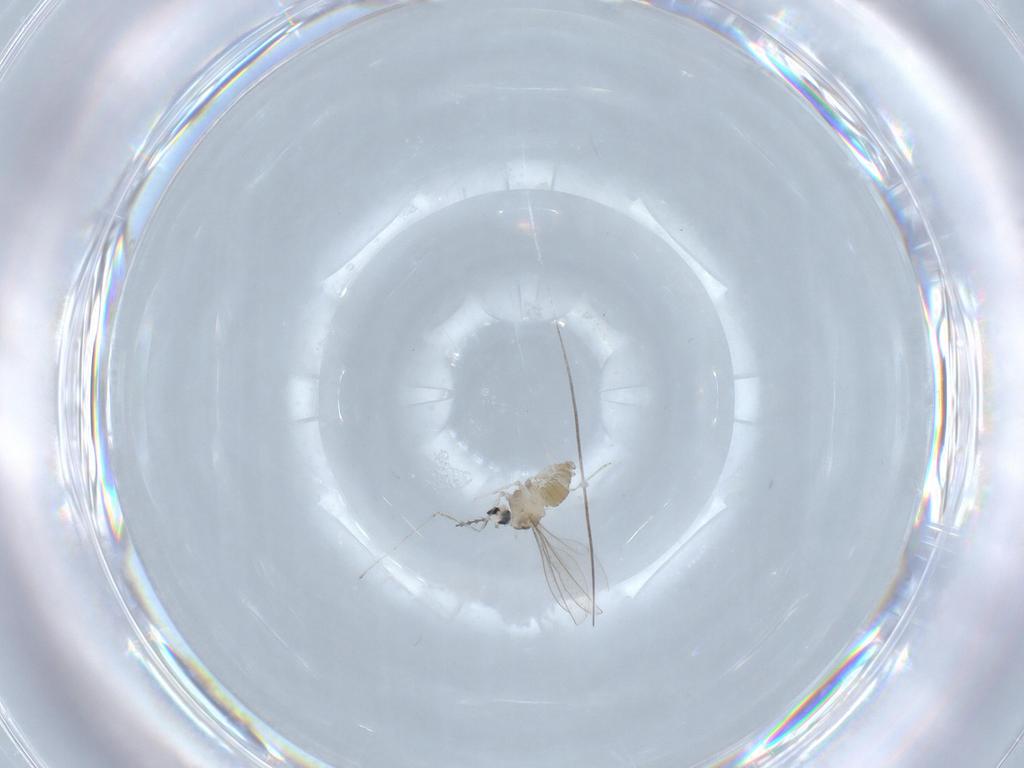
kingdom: Animalia
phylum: Arthropoda
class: Insecta
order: Diptera
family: Cecidomyiidae
